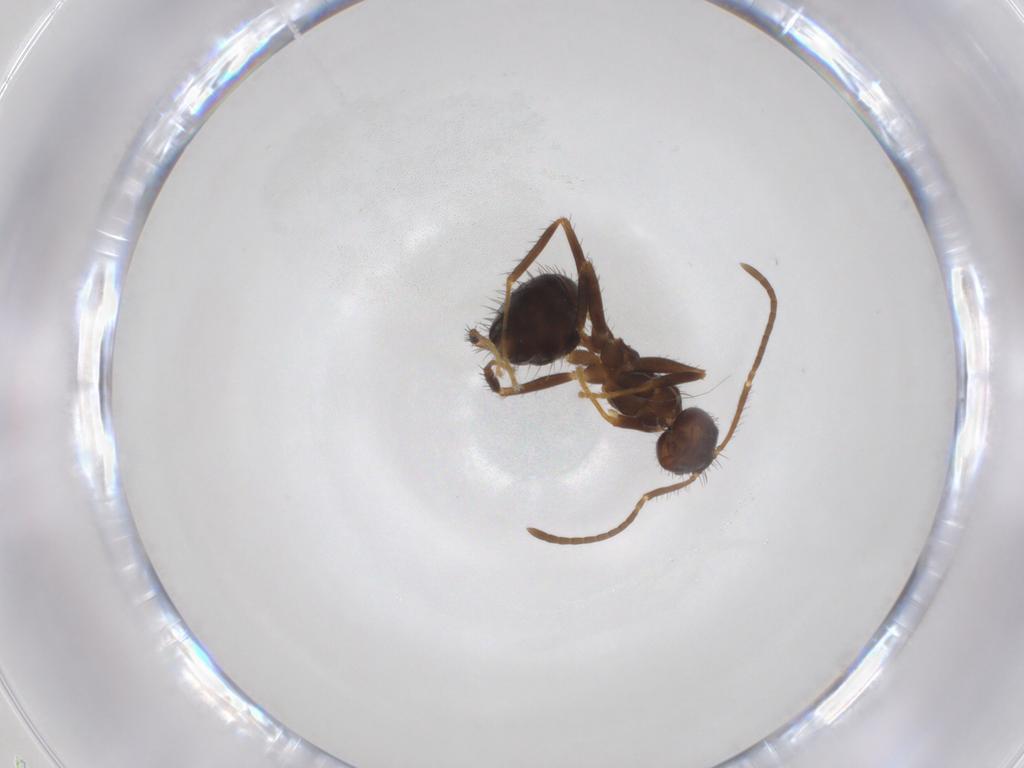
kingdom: Animalia
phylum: Arthropoda
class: Insecta
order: Hymenoptera
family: Formicidae
